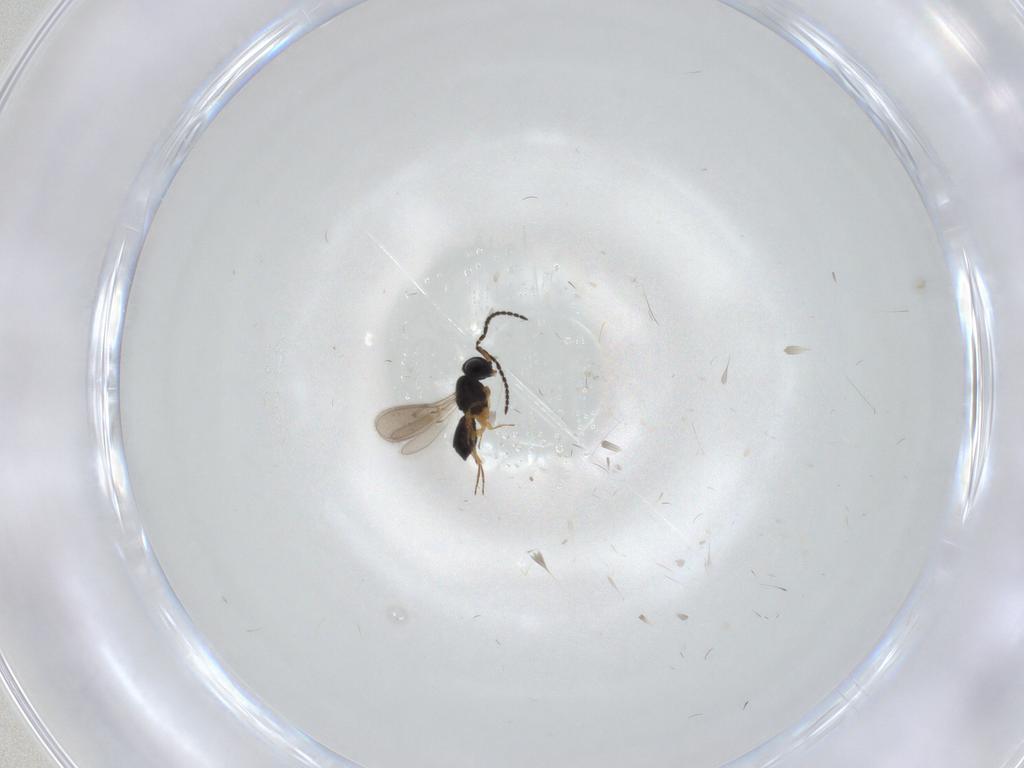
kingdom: Animalia
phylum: Arthropoda
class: Insecta
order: Hymenoptera
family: Scelionidae
